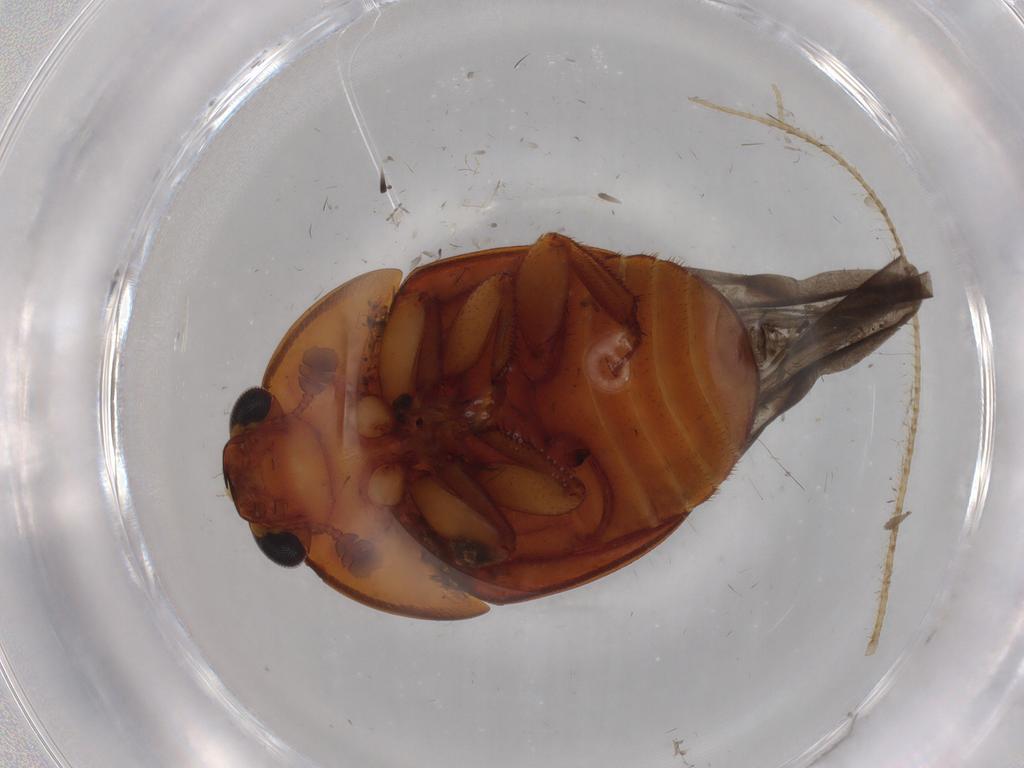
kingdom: Animalia
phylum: Arthropoda
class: Insecta
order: Coleoptera
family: Nitidulidae
